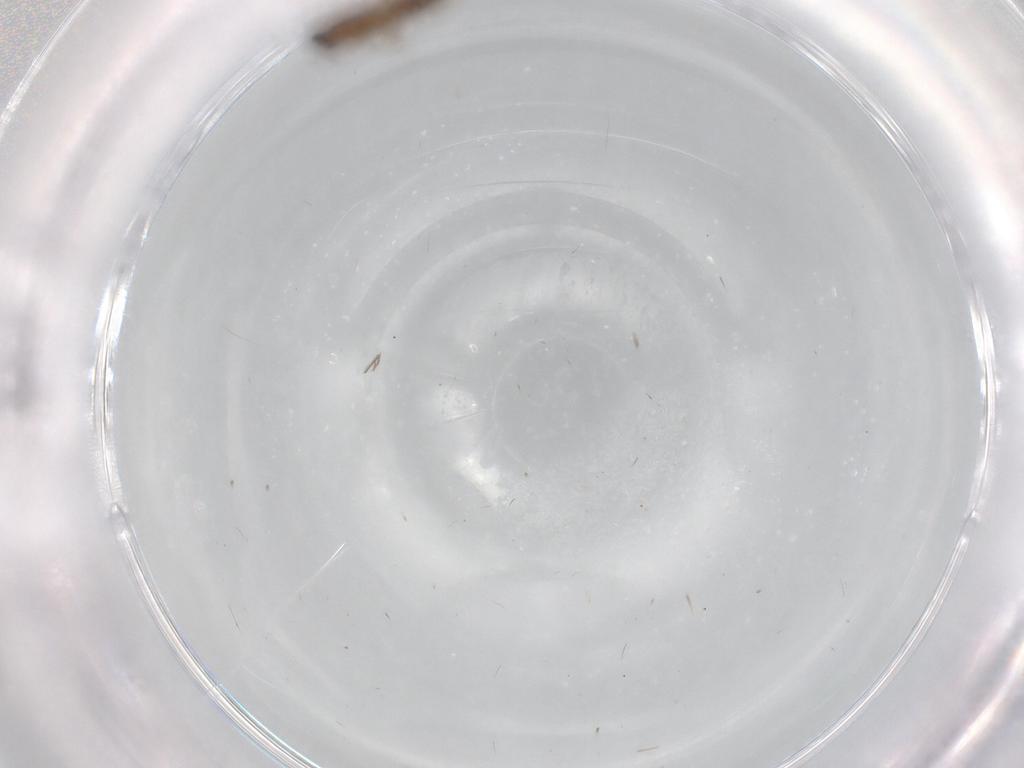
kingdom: Animalia
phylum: Arthropoda
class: Insecta
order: Diptera
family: Phoridae
